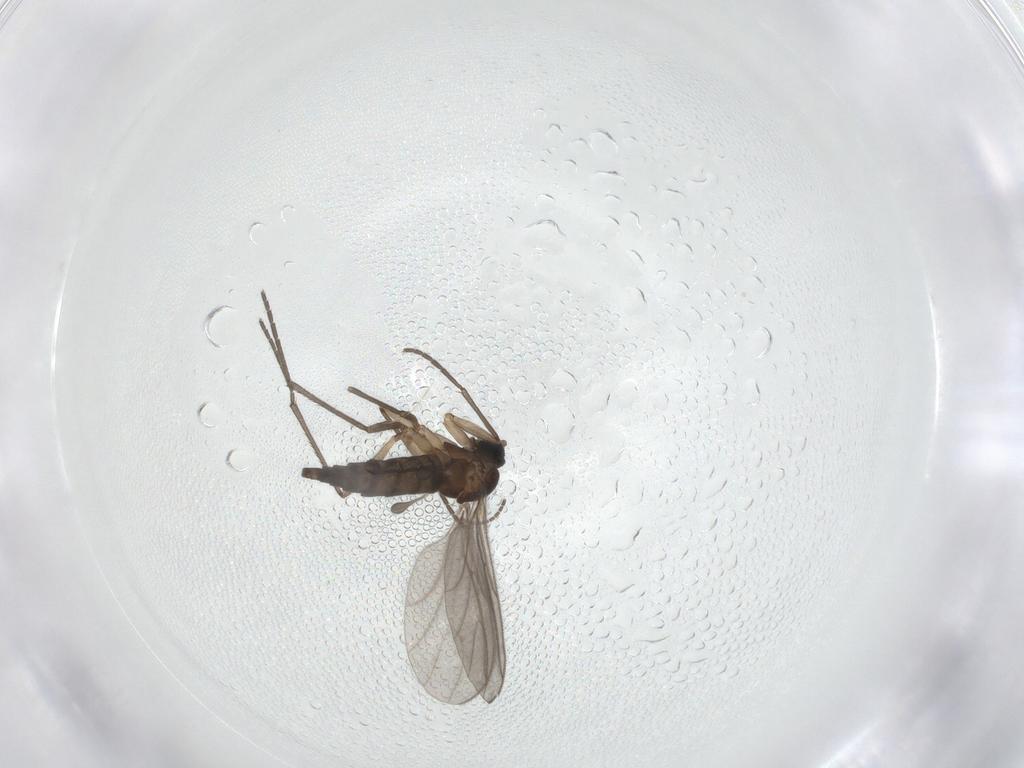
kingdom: Animalia
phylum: Arthropoda
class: Insecta
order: Diptera
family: Sciaridae
